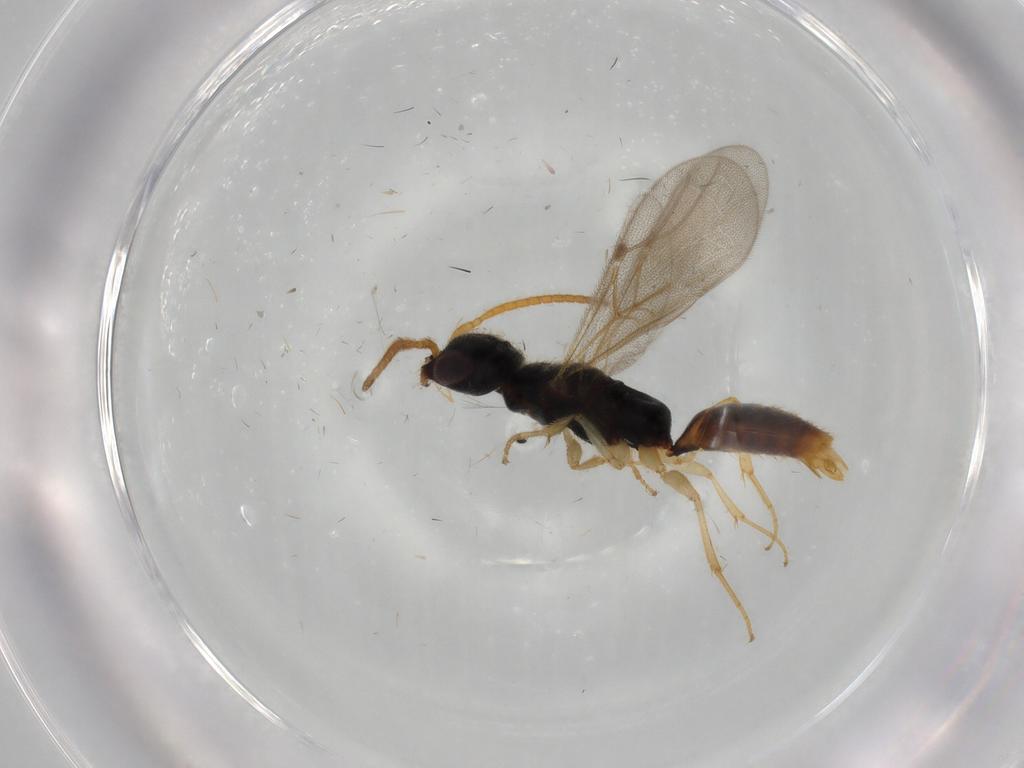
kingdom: Animalia
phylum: Arthropoda
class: Insecta
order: Hymenoptera
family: Bethylidae
